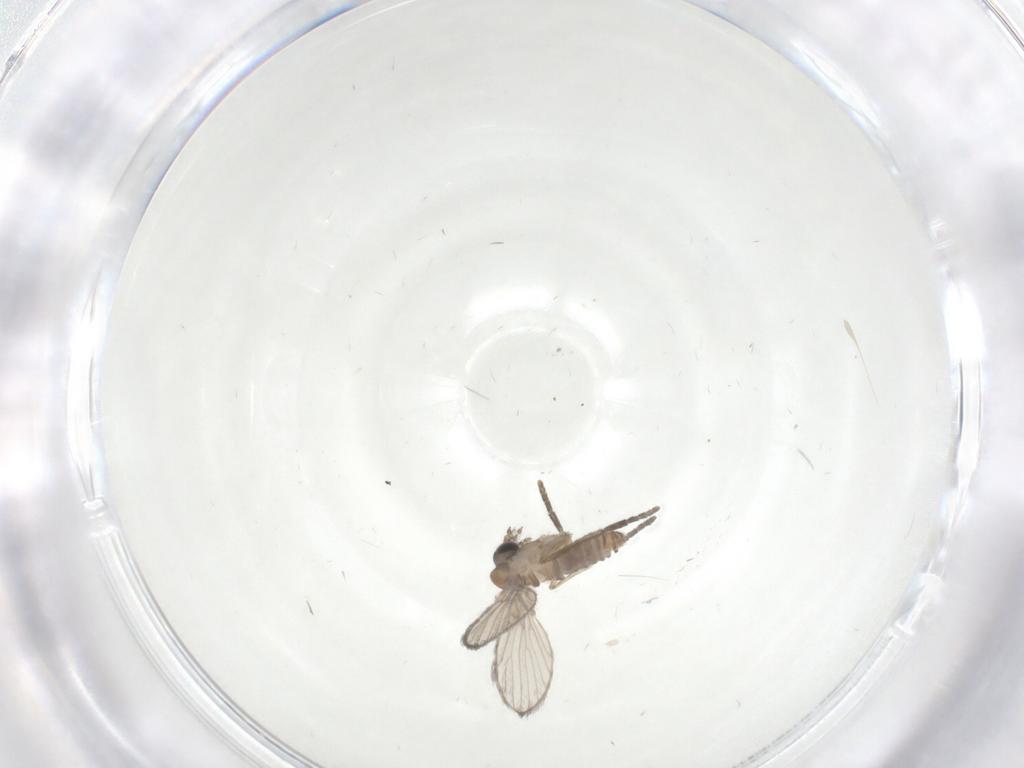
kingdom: Animalia
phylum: Arthropoda
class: Insecta
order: Diptera
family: Psychodidae
